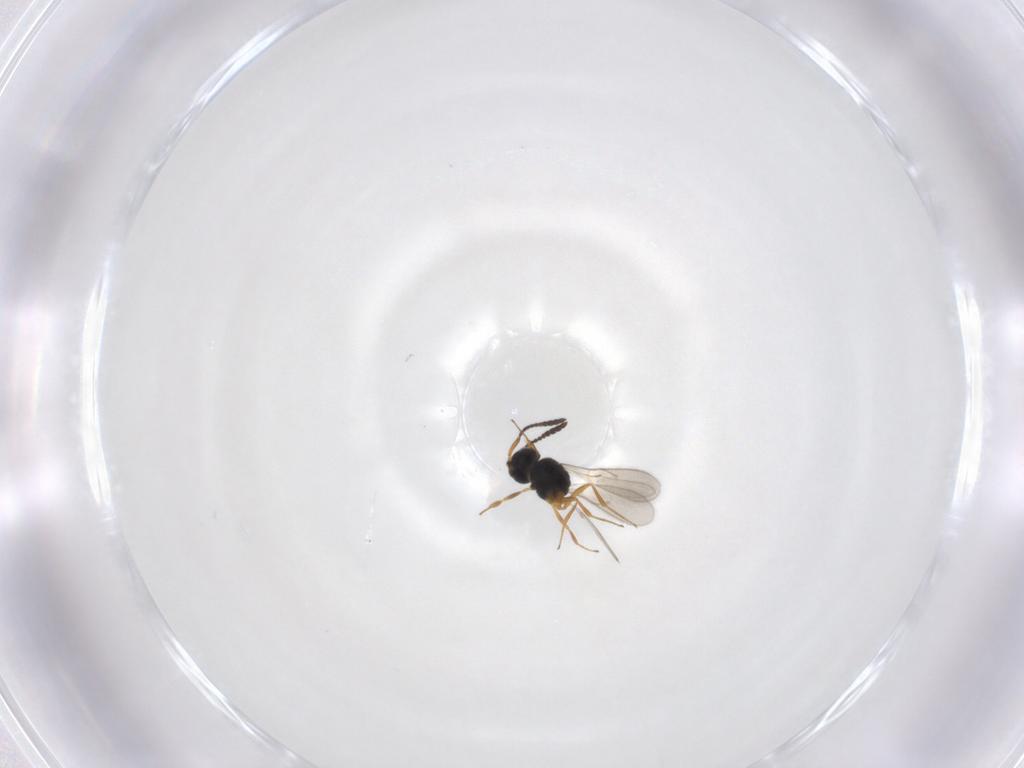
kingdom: Animalia
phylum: Arthropoda
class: Insecta
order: Hymenoptera
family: Scelionidae
